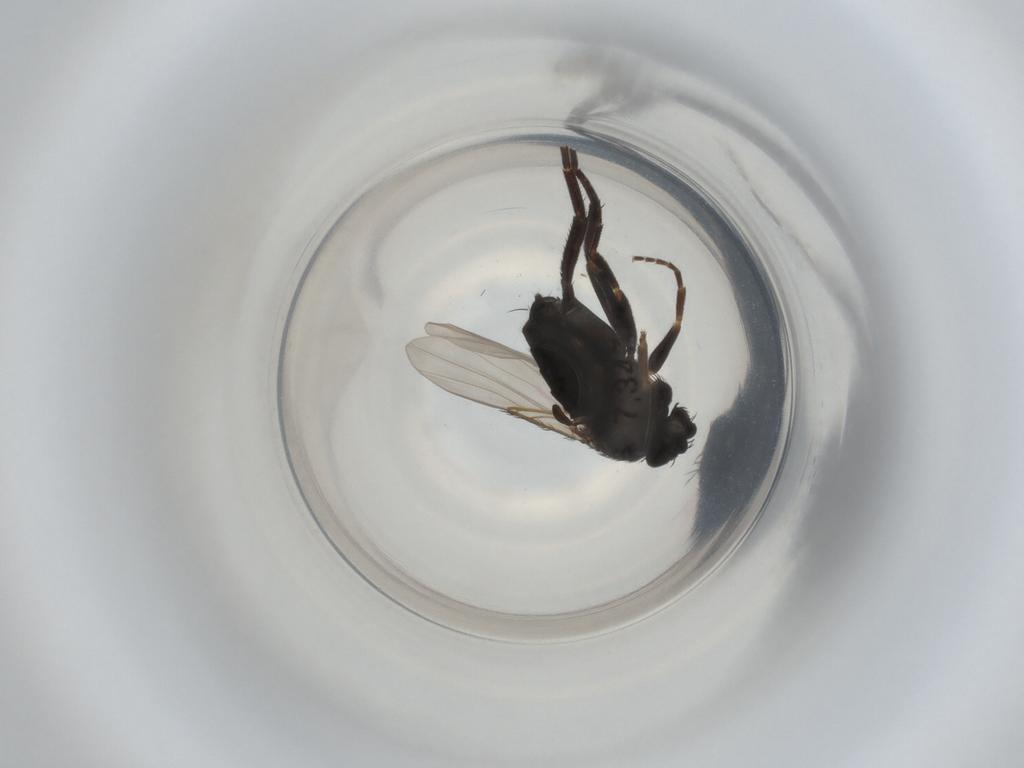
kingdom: Animalia
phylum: Arthropoda
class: Insecta
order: Diptera
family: Phoridae
